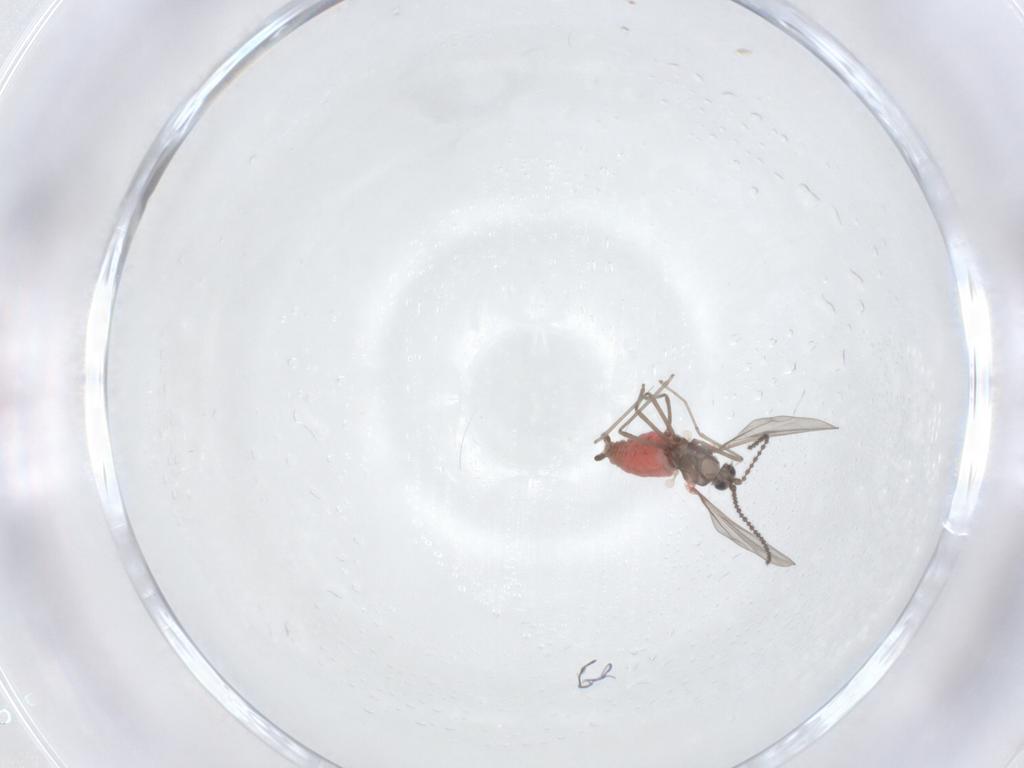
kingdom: Animalia
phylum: Arthropoda
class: Insecta
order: Diptera
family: Cecidomyiidae
